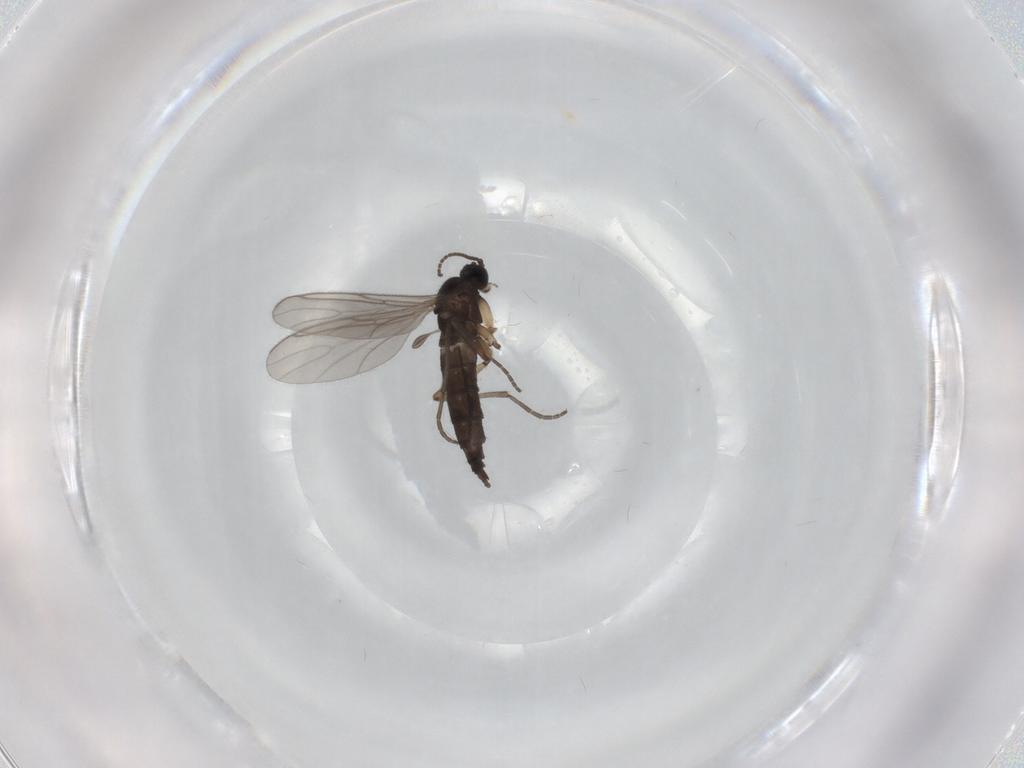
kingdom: Animalia
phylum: Arthropoda
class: Insecta
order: Diptera
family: Sciaridae
